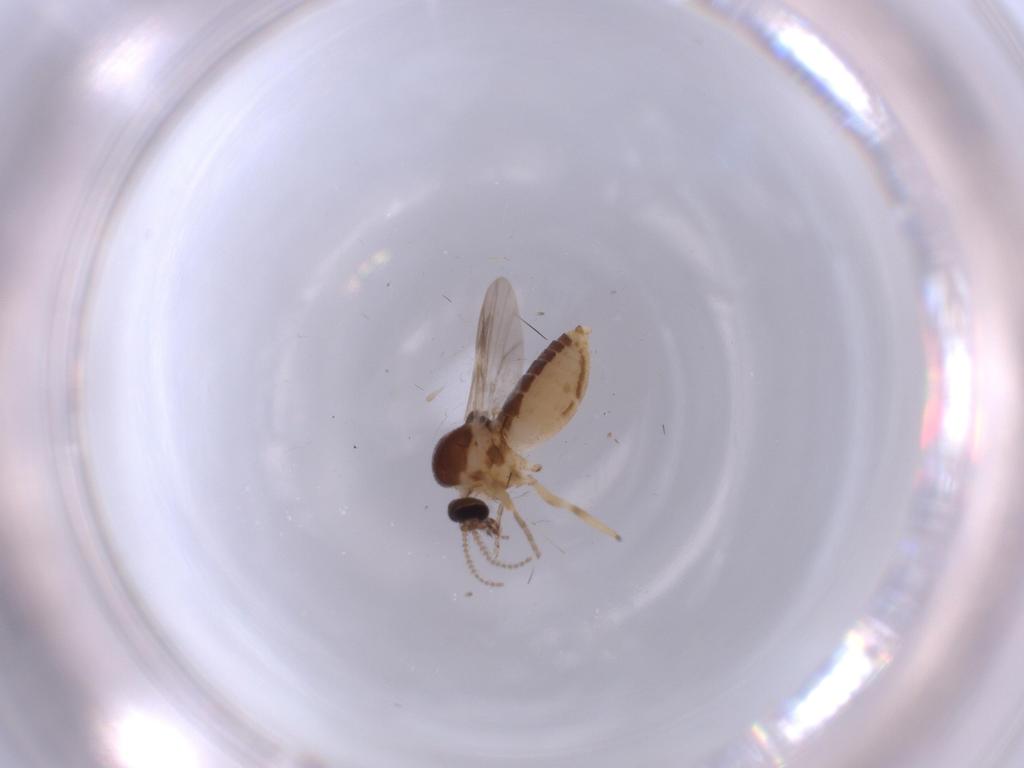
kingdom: Animalia
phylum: Arthropoda
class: Insecta
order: Diptera
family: Ceratopogonidae
